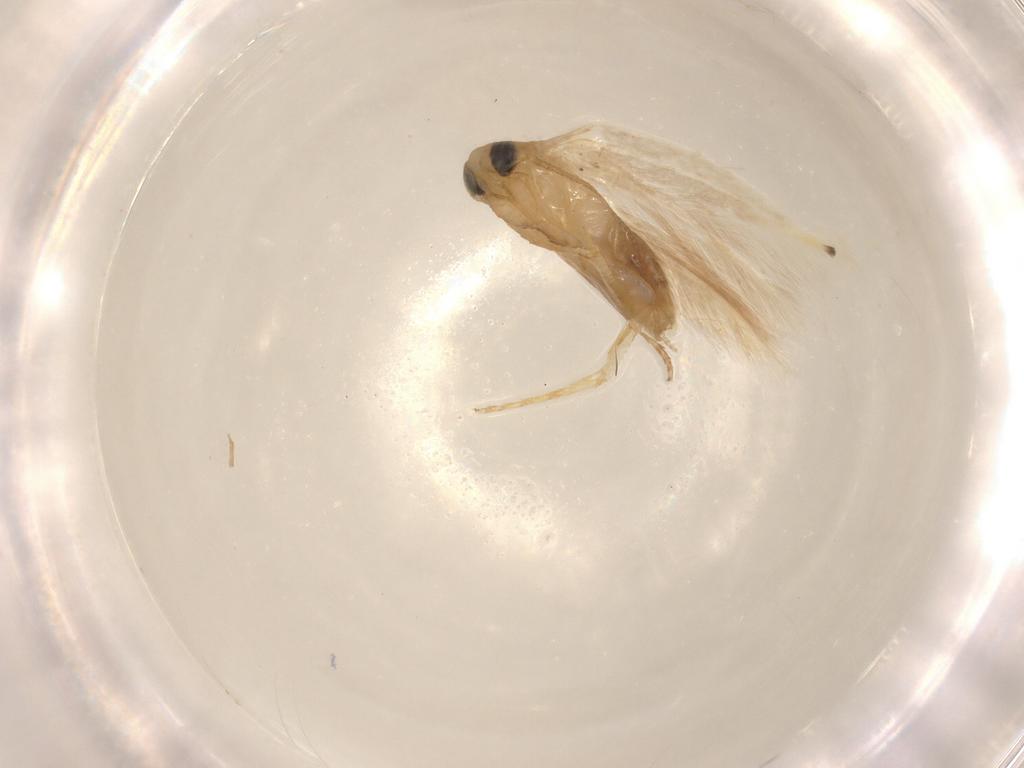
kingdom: Animalia
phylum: Arthropoda
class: Insecta
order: Lepidoptera
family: Opostegidae
